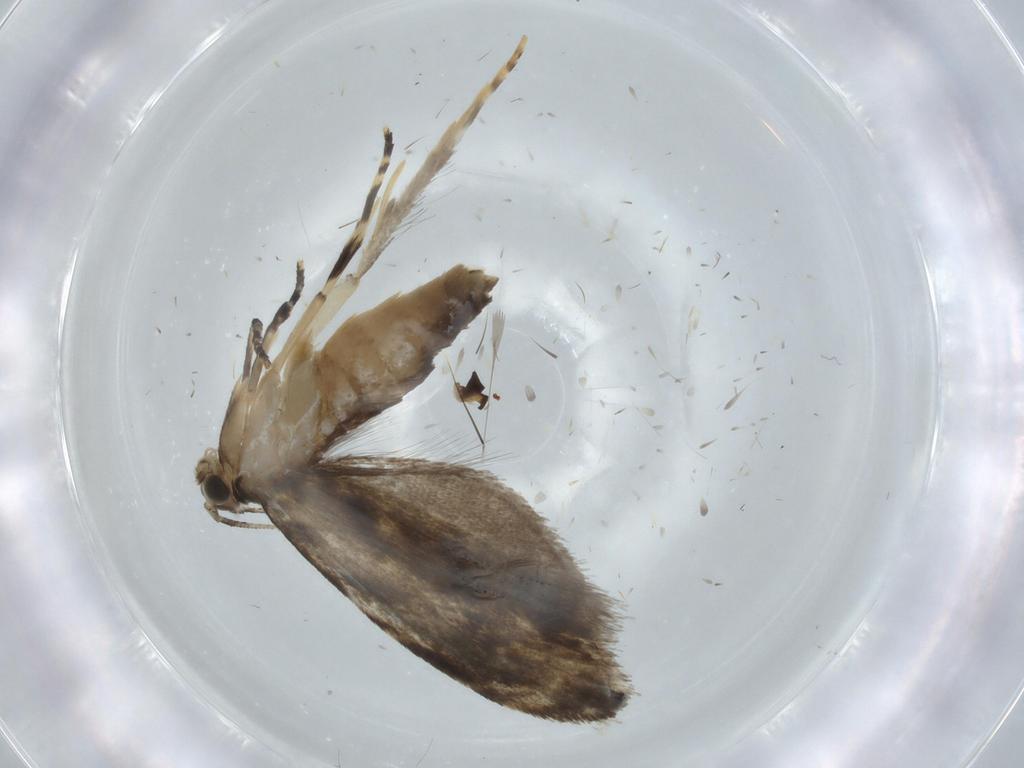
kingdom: Animalia
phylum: Arthropoda
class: Insecta
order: Lepidoptera
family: Tineidae
